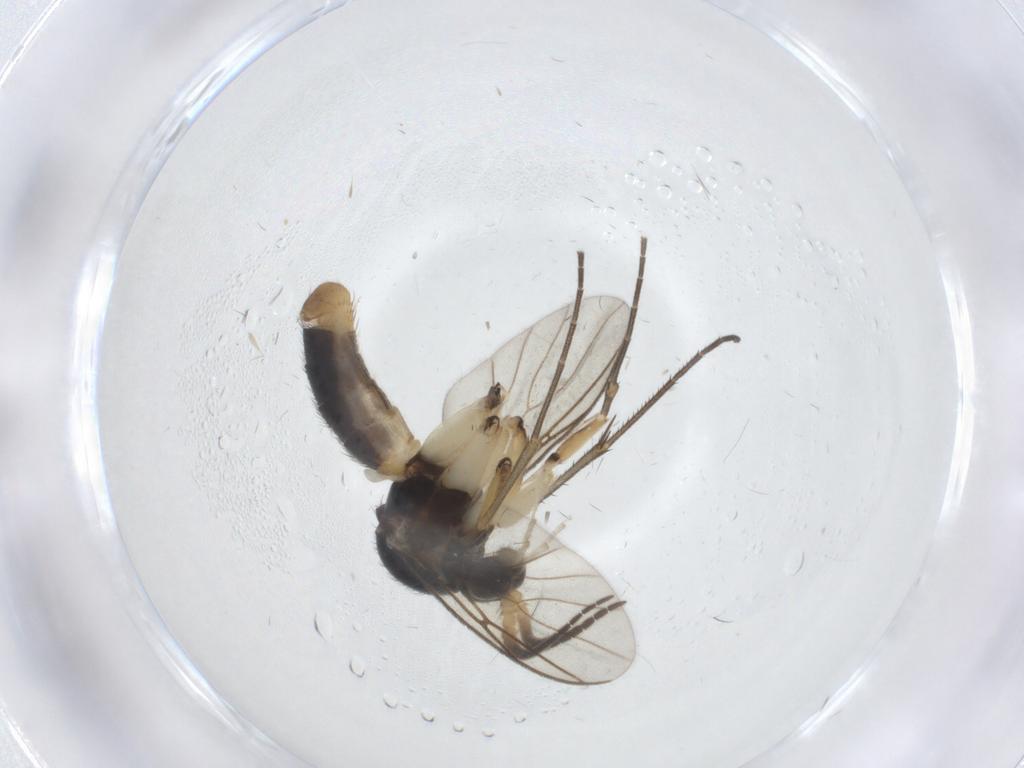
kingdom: Animalia
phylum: Arthropoda
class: Insecta
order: Diptera
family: Mycetophilidae
